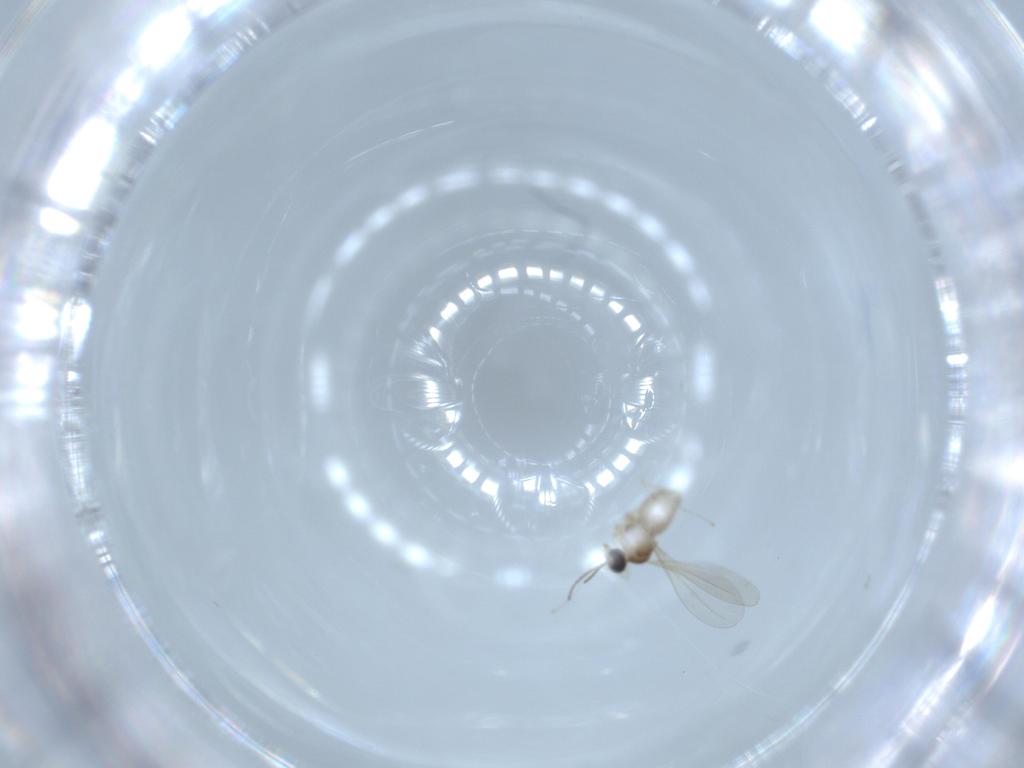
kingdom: Animalia
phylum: Arthropoda
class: Insecta
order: Diptera
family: Cecidomyiidae
